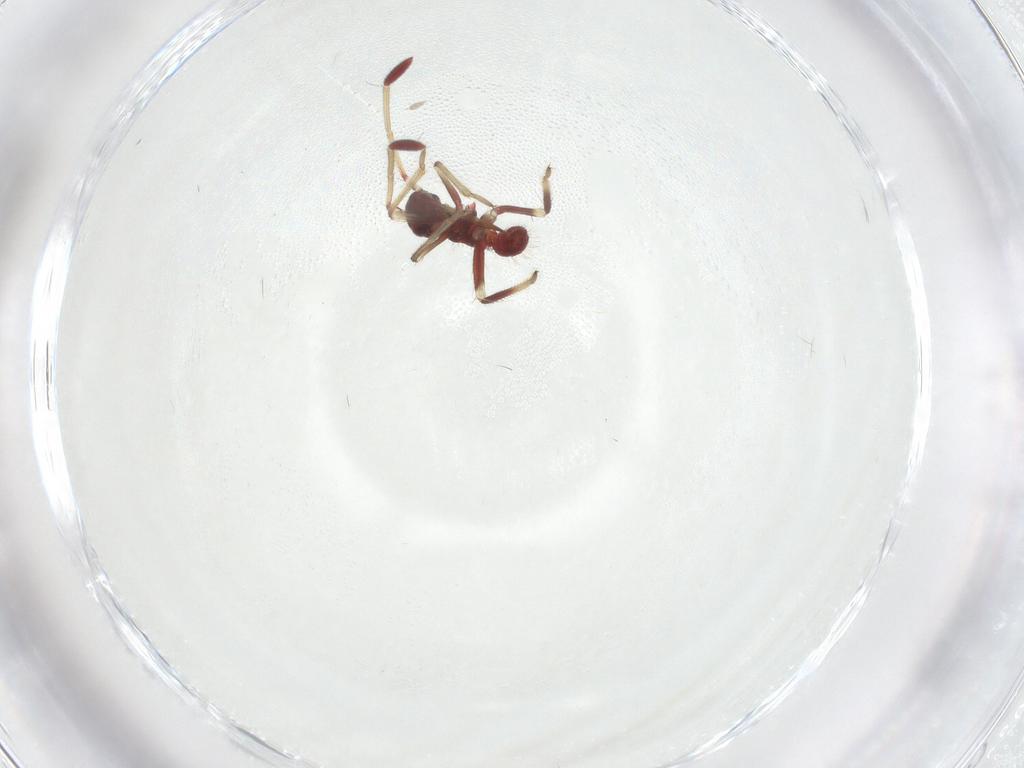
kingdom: Animalia
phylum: Arthropoda
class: Insecta
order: Hemiptera
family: Miridae
